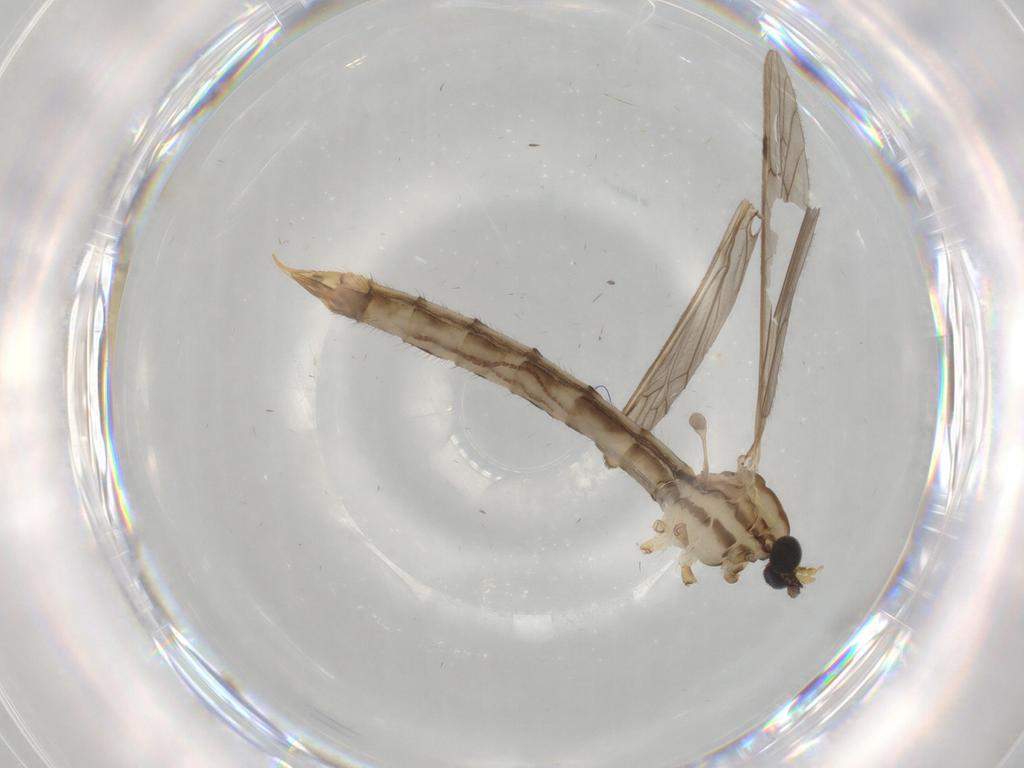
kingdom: Animalia
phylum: Arthropoda
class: Insecta
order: Diptera
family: Limoniidae
